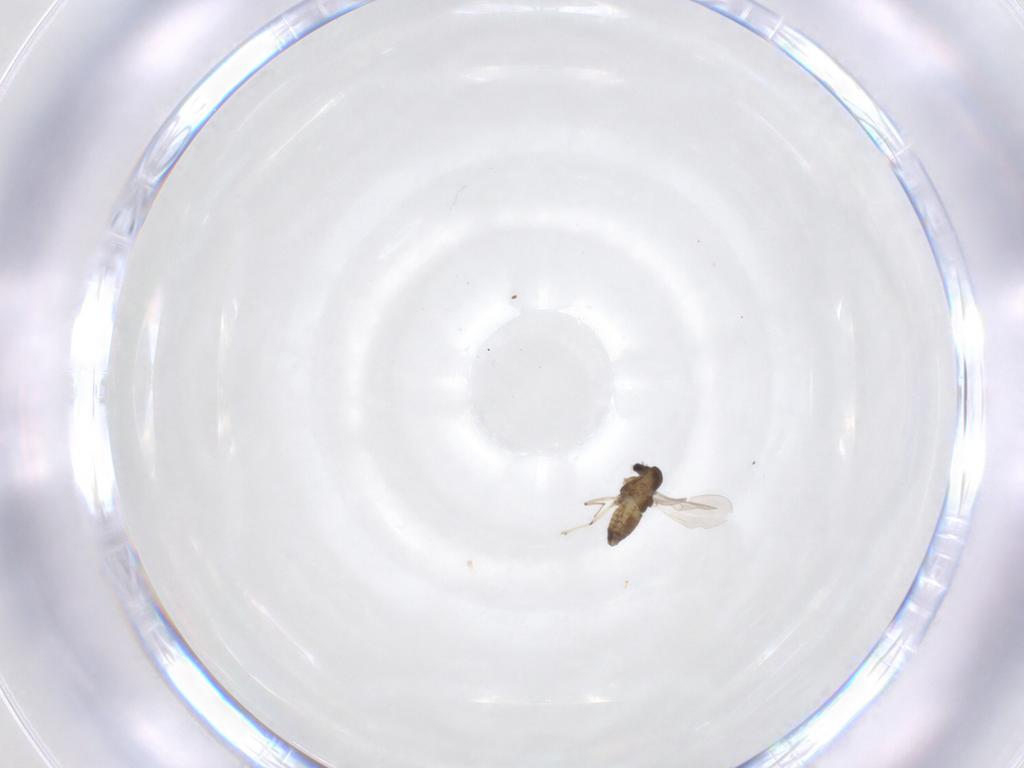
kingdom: Animalia
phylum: Arthropoda
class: Insecta
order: Diptera
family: Chironomidae
